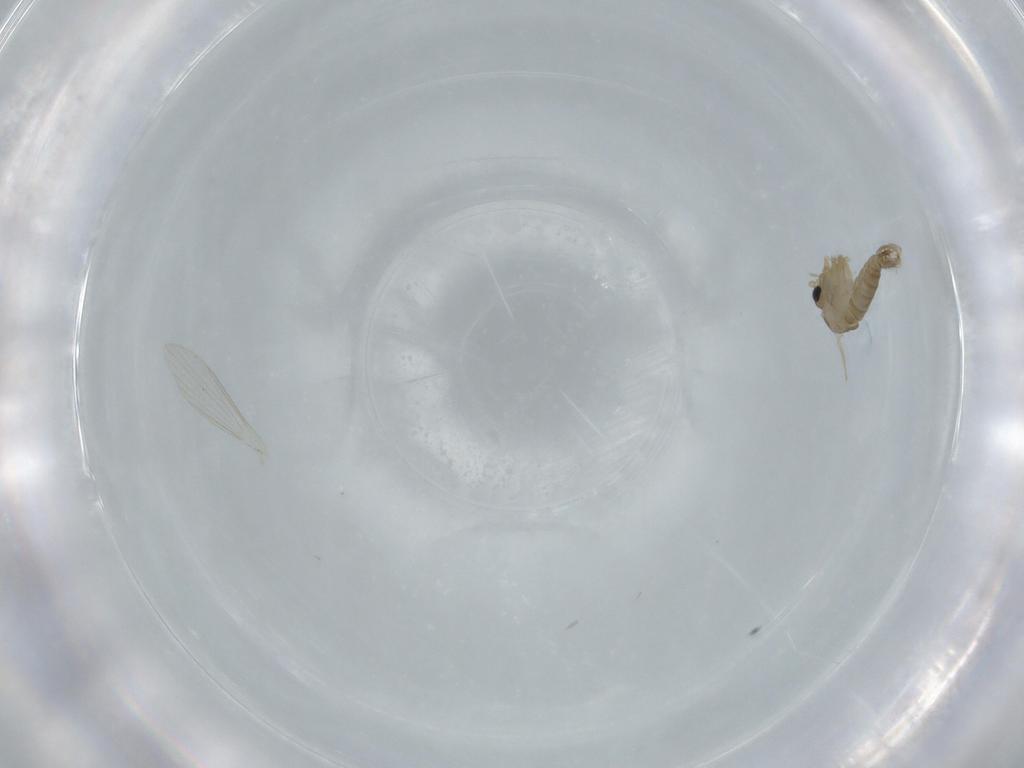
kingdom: Animalia
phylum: Arthropoda
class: Insecta
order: Diptera
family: Psychodidae
